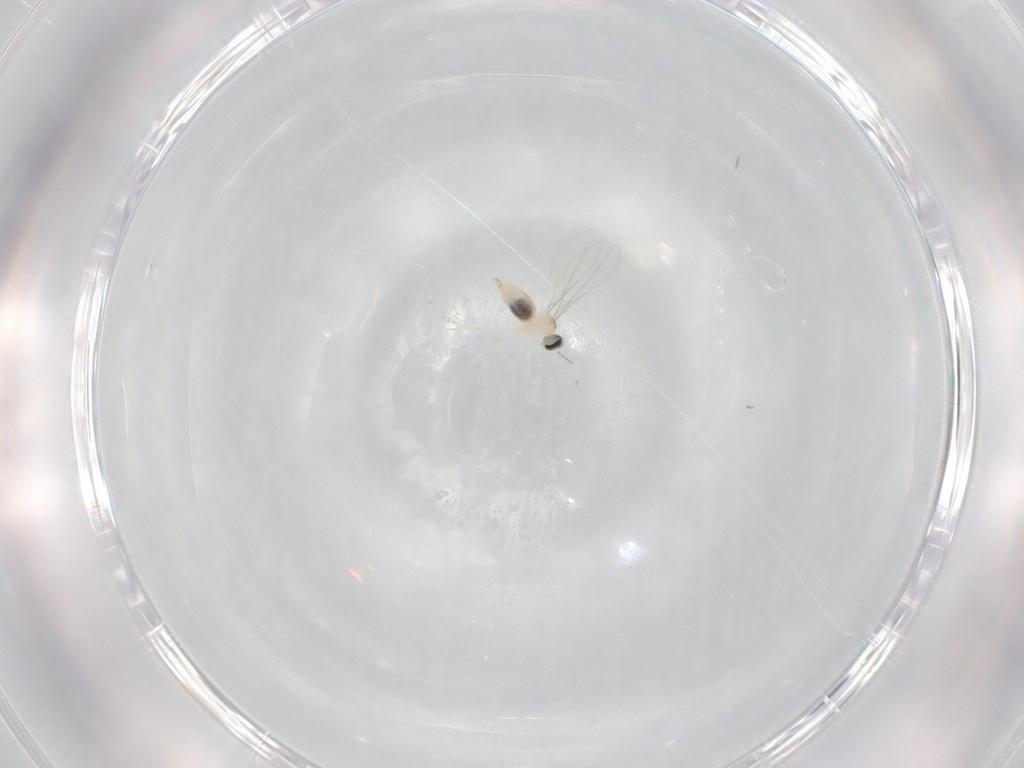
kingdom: Animalia
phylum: Arthropoda
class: Insecta
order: Diptera
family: Cecidomyiidae
